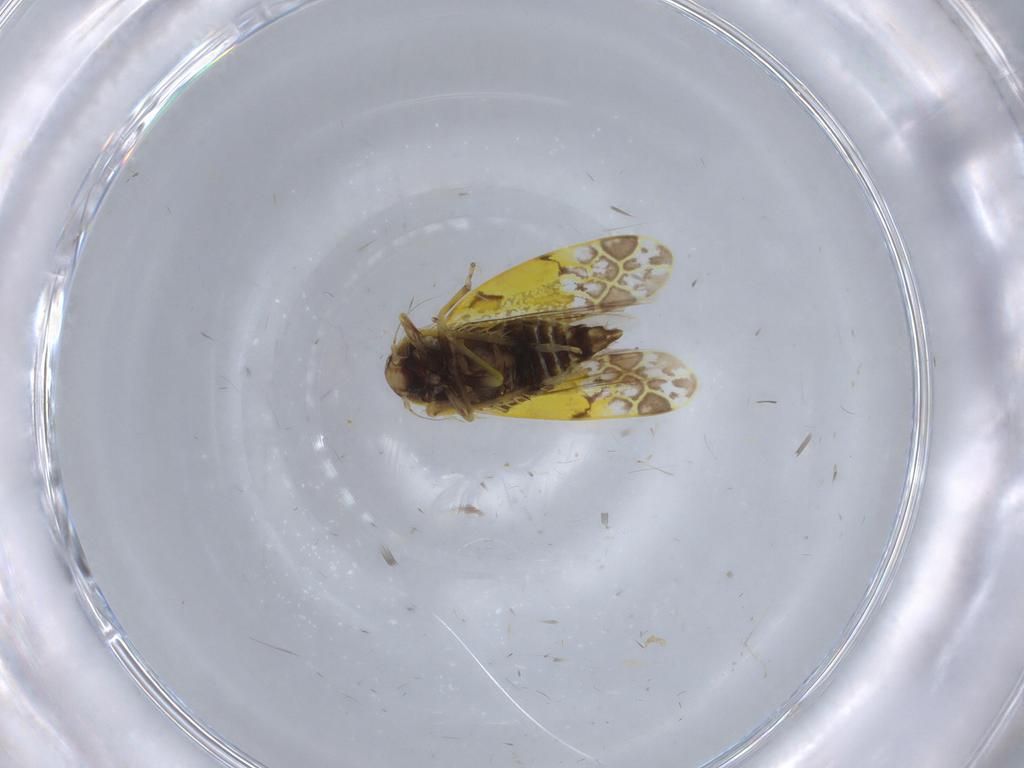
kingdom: Animalia
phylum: Arthropoda
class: Insecta
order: Hemiptera
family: Cicadellidae
